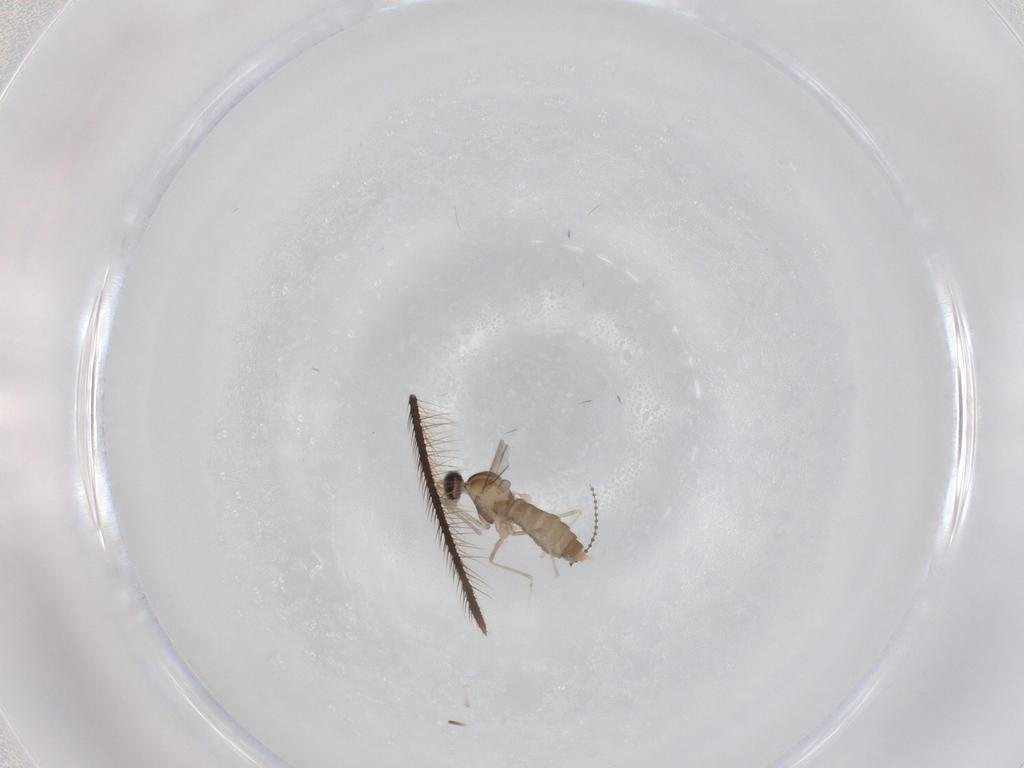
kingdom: Animalia
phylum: Arthropoda
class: Insecta
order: Diptera
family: Cecidomyiidae
